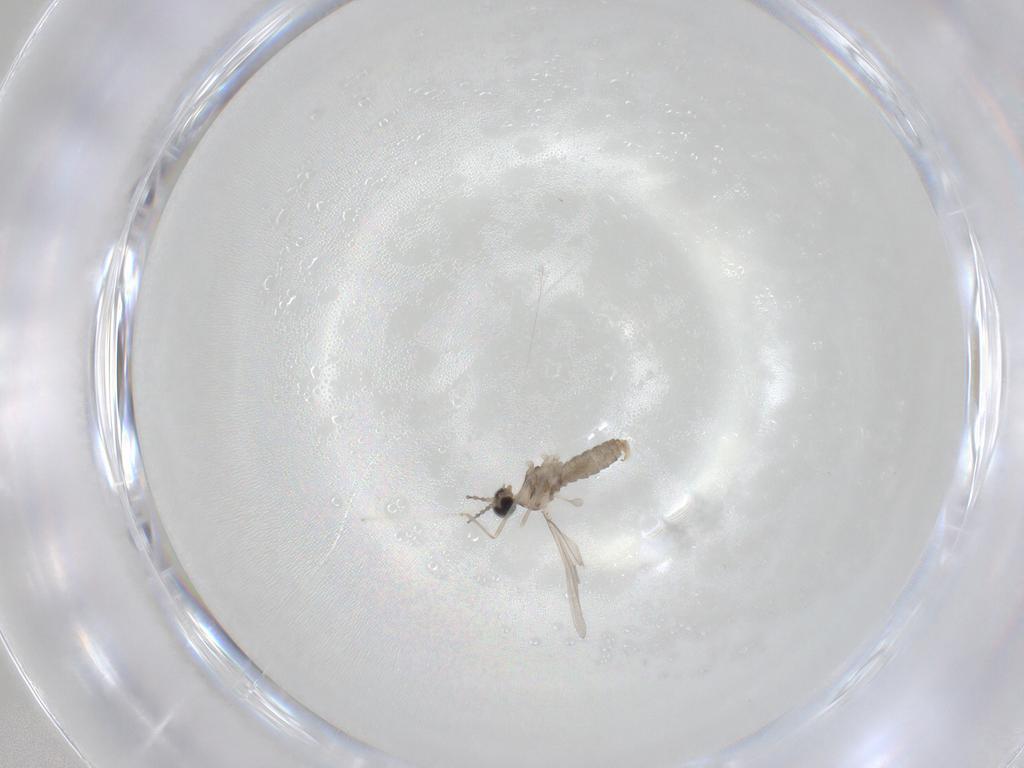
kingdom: Animalia
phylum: Arthropoda
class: Insecta
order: Diptera
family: Cecidomyiidae
